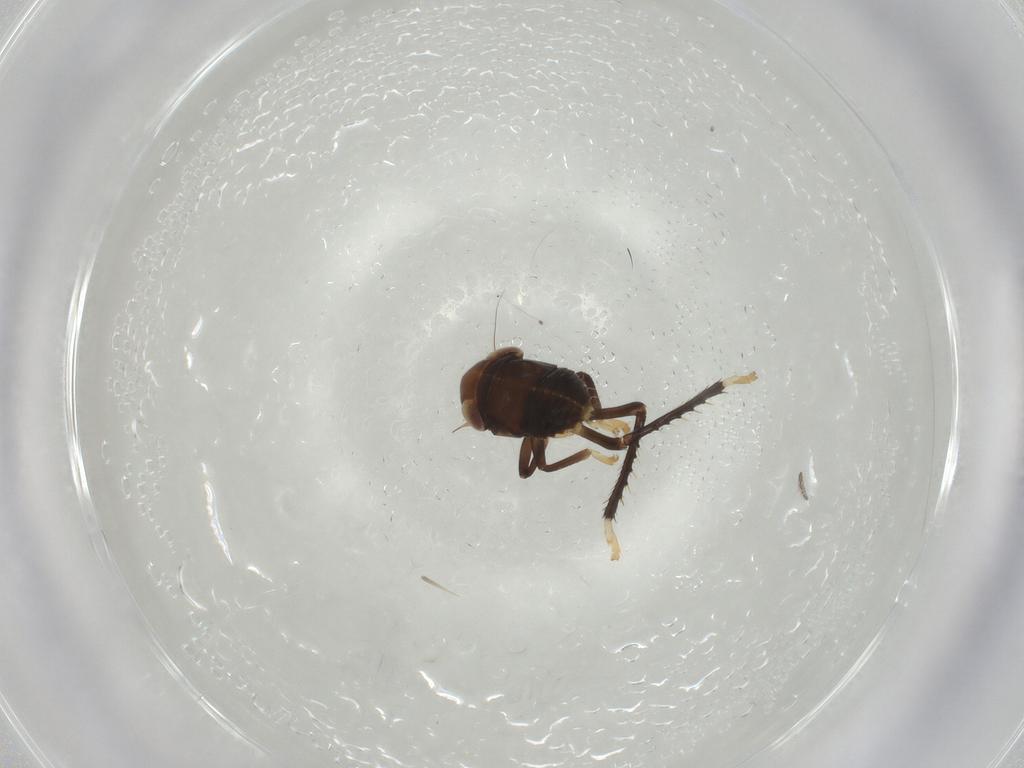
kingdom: Animalia
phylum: Arthropoda
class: Insecta
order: Hemiptera
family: Cicadellidae
